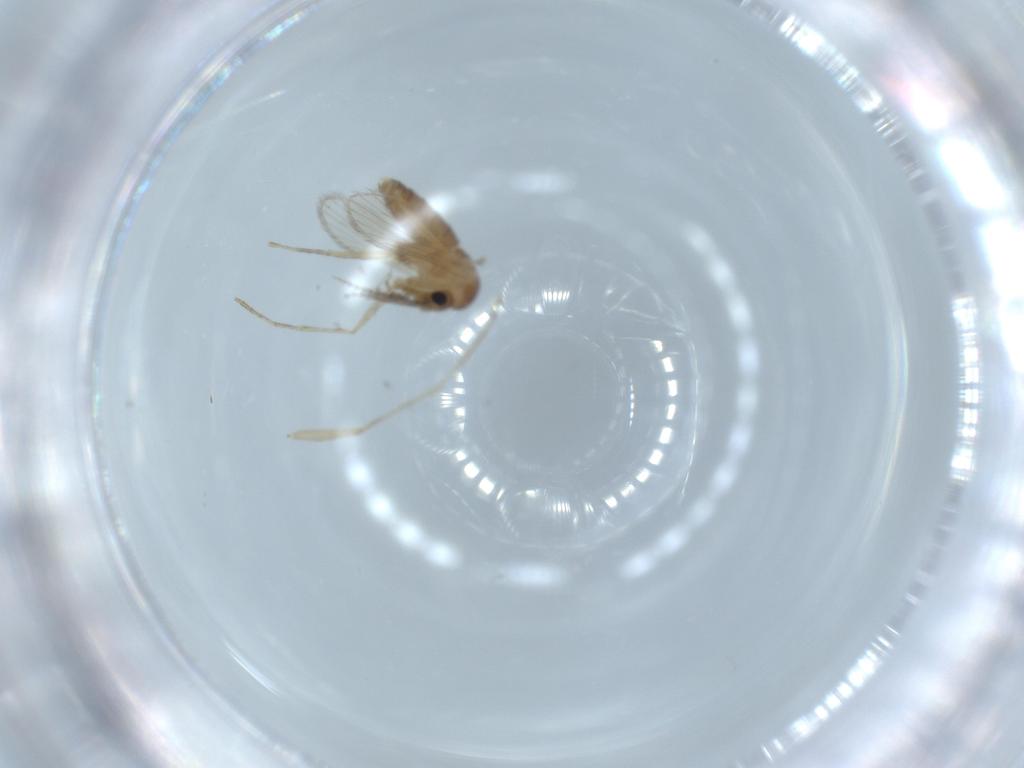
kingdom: Animalia
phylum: Arthropoda
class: Insecta
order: Diptera
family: Psychodidae
